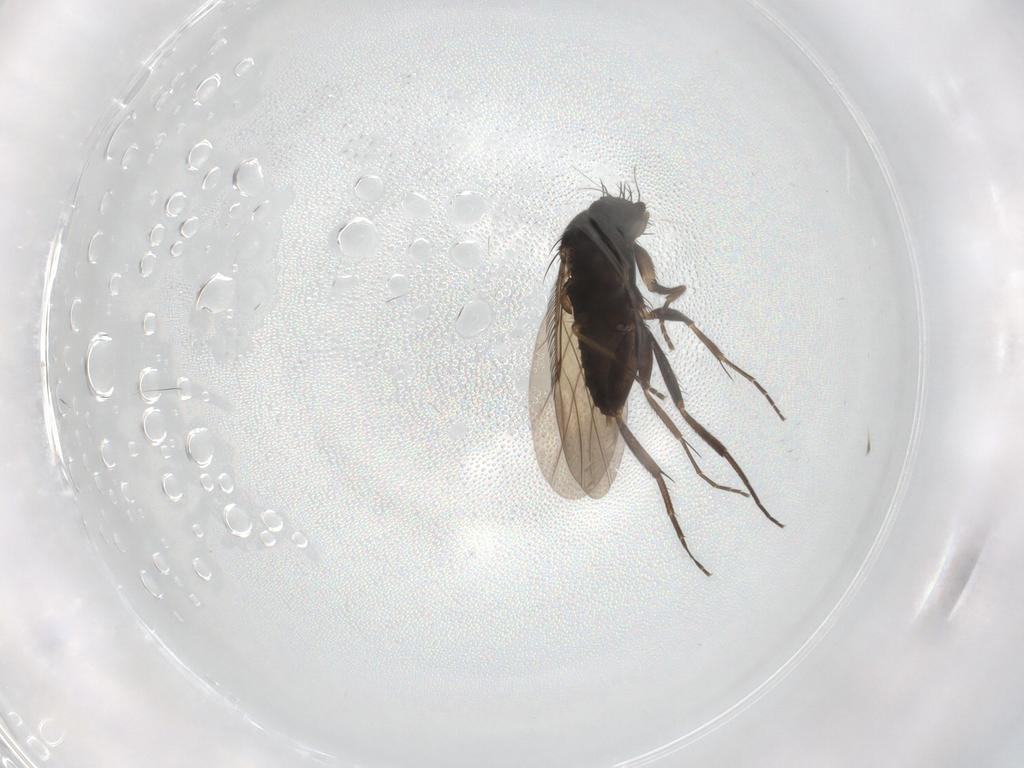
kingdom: Animalia
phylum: Arthropoda
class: Insecta
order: Diptera
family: Phoridae
